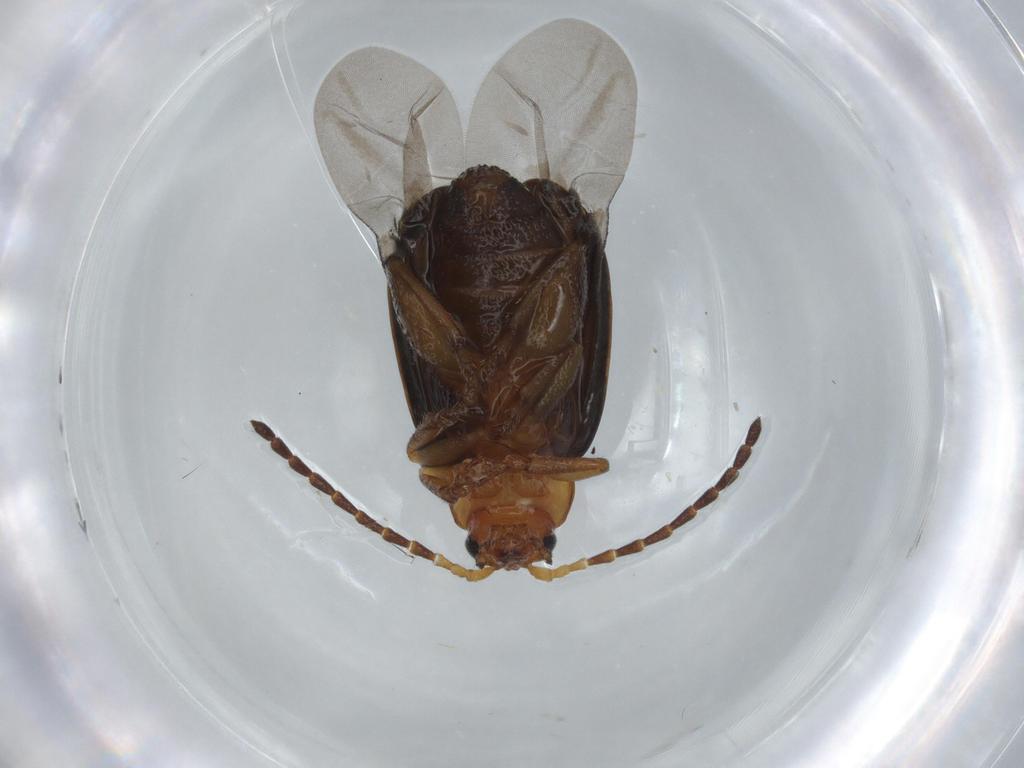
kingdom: Animalia
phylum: Arthropoda
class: Insecta
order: Coleoptera
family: Chrysomelidae
